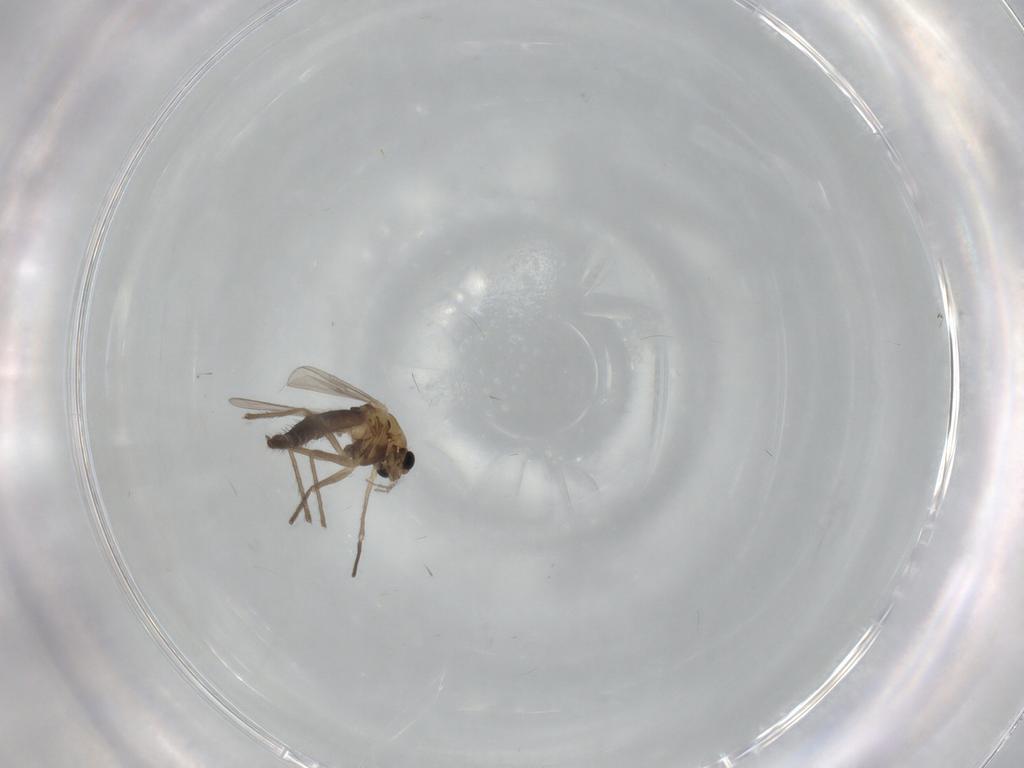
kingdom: Animalia
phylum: Arthropoda
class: Insecta
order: Diptera
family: Chironomidae
